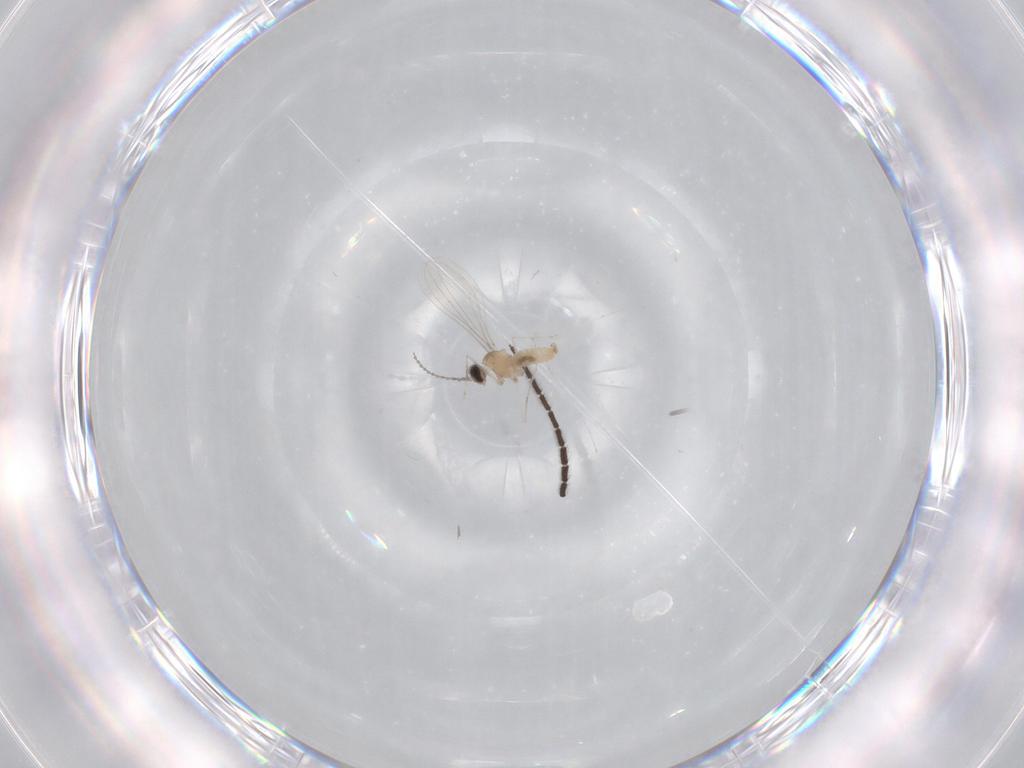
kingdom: Animalia
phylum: Arthropoda
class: Insecta
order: Diptera
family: Cecidomyiidae
